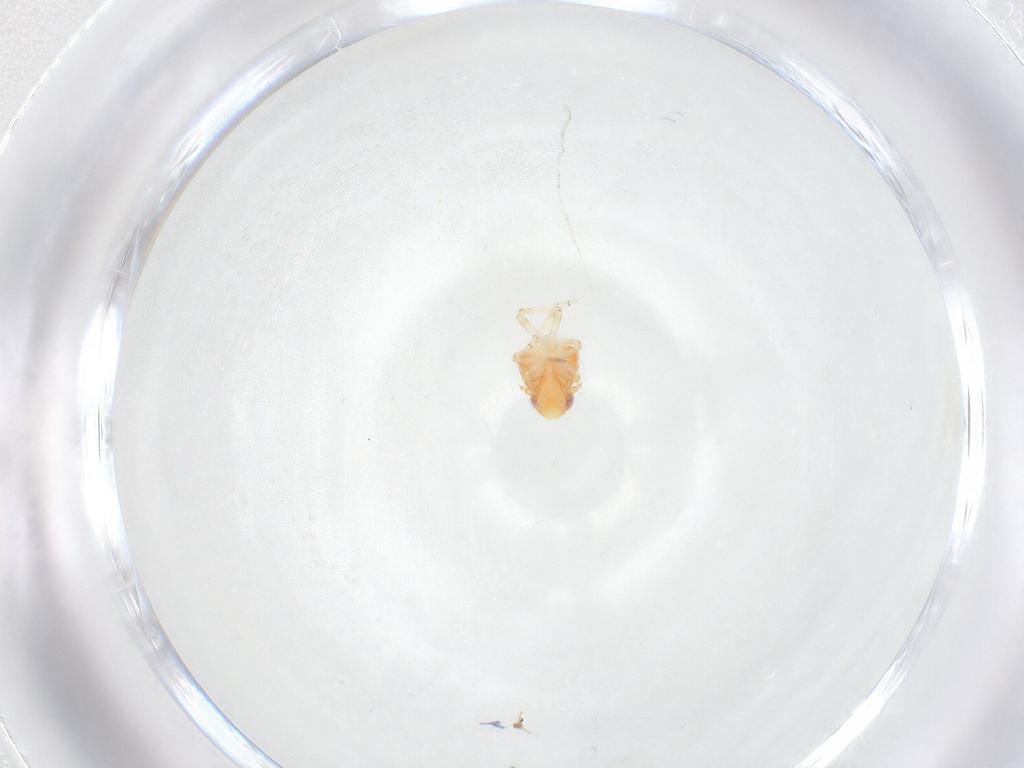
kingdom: Animalia
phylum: Arthropoda
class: Insecta
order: Hemiptera
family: Issidae
